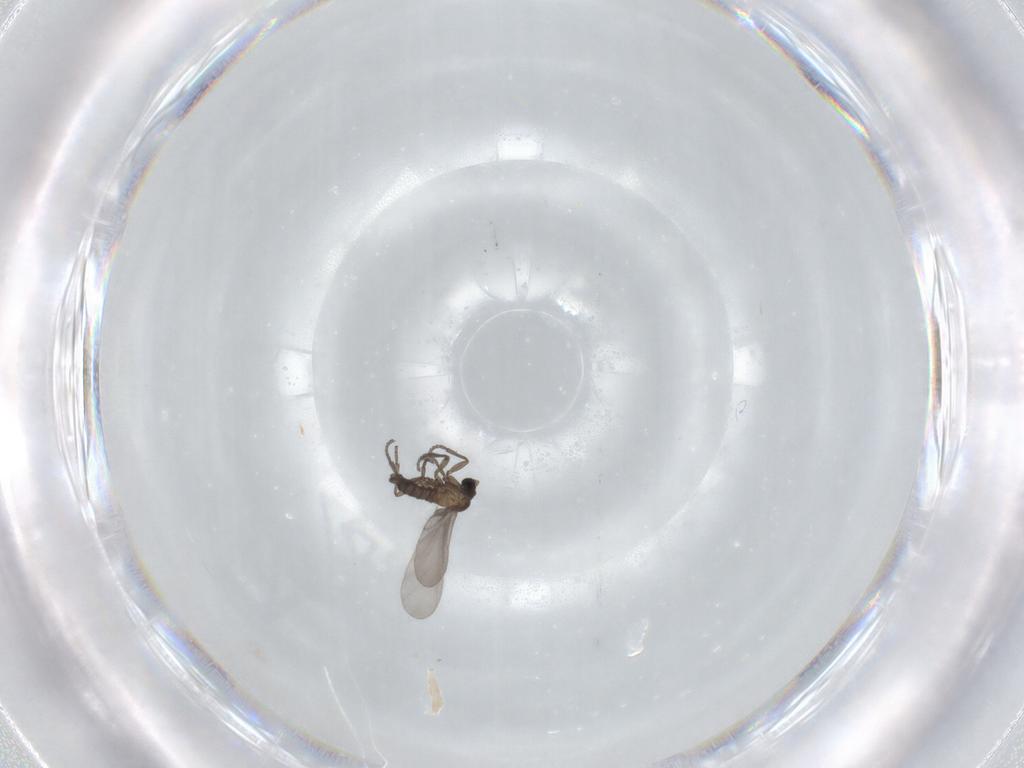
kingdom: Animalia
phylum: Arthropoda
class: Insecta
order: Diptera
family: Sciaridae
